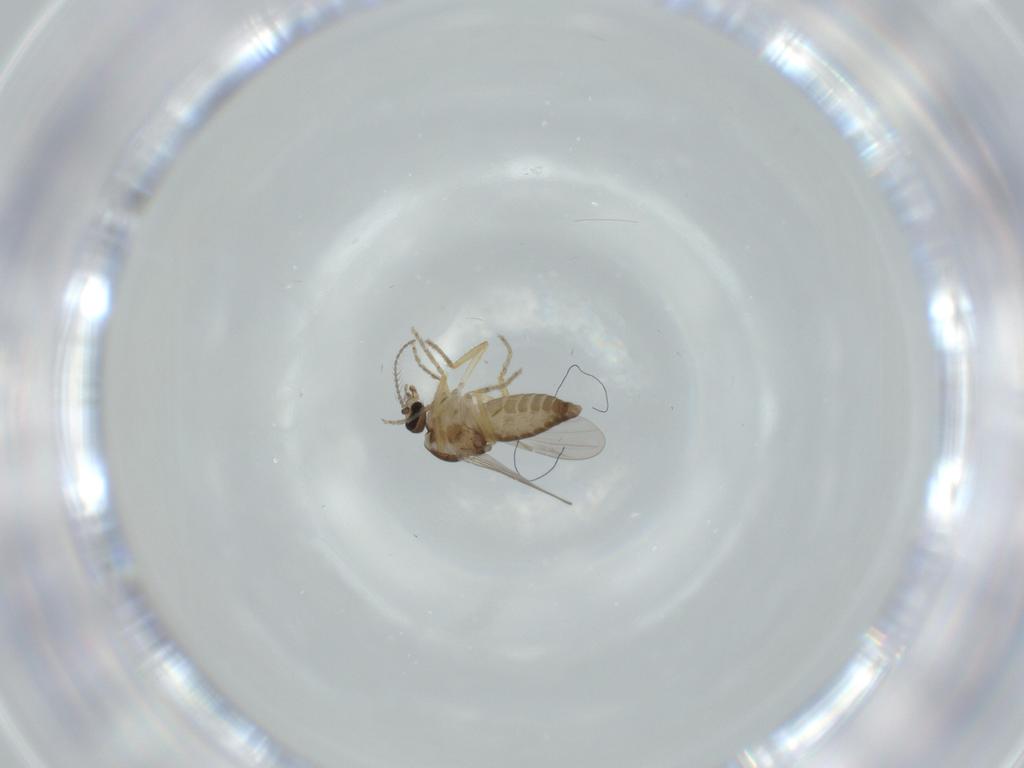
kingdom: Animalia
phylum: Arthropoda
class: Insecta
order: Diptera
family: Ceratopogonidae
